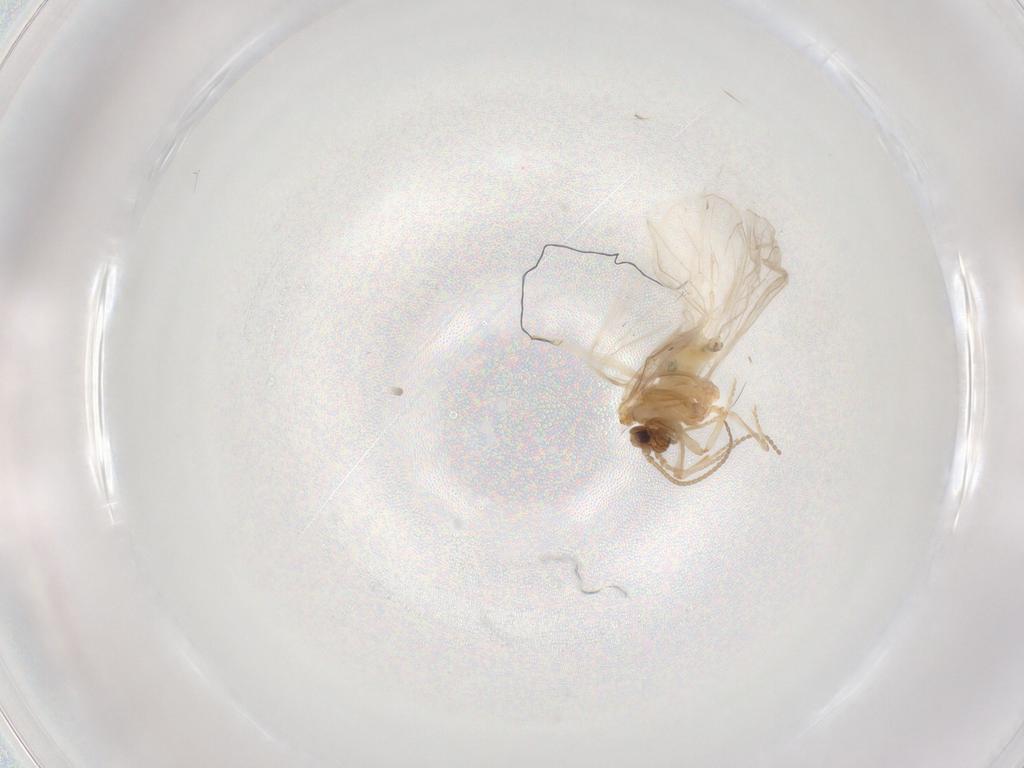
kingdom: Animalia
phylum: Arthropoda
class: Insecta
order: Neuroptera
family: Coniopterygidae
